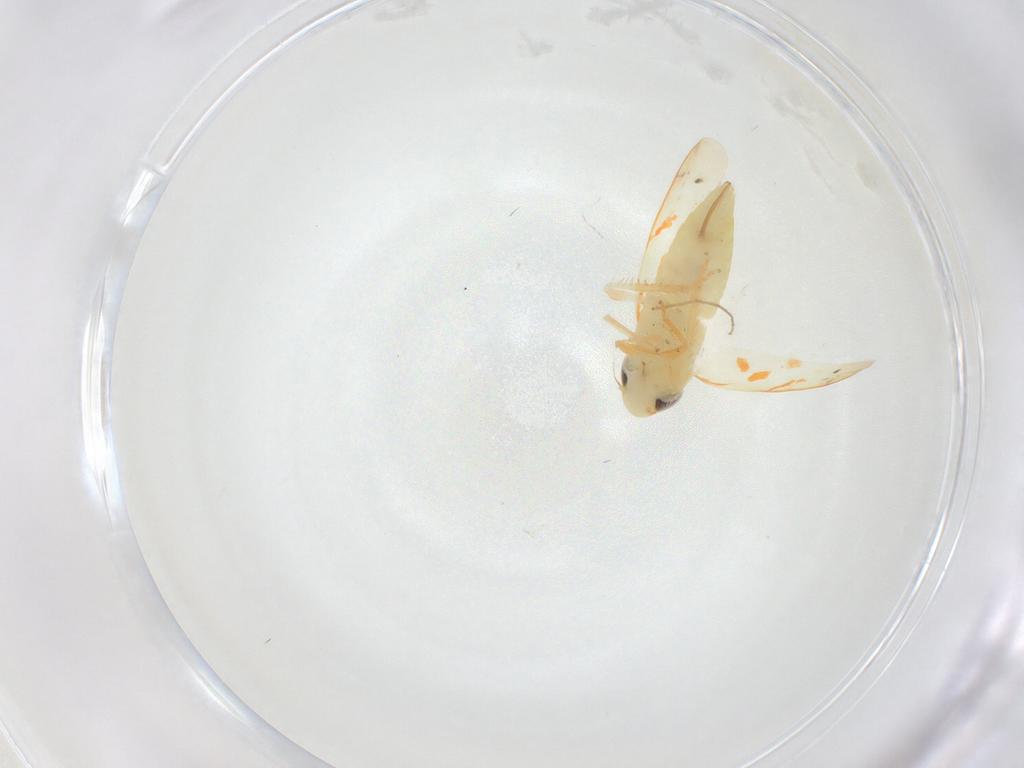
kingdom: Animalia
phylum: Arthropoda
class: Insecta
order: Hemiptera
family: Cicadellidae
